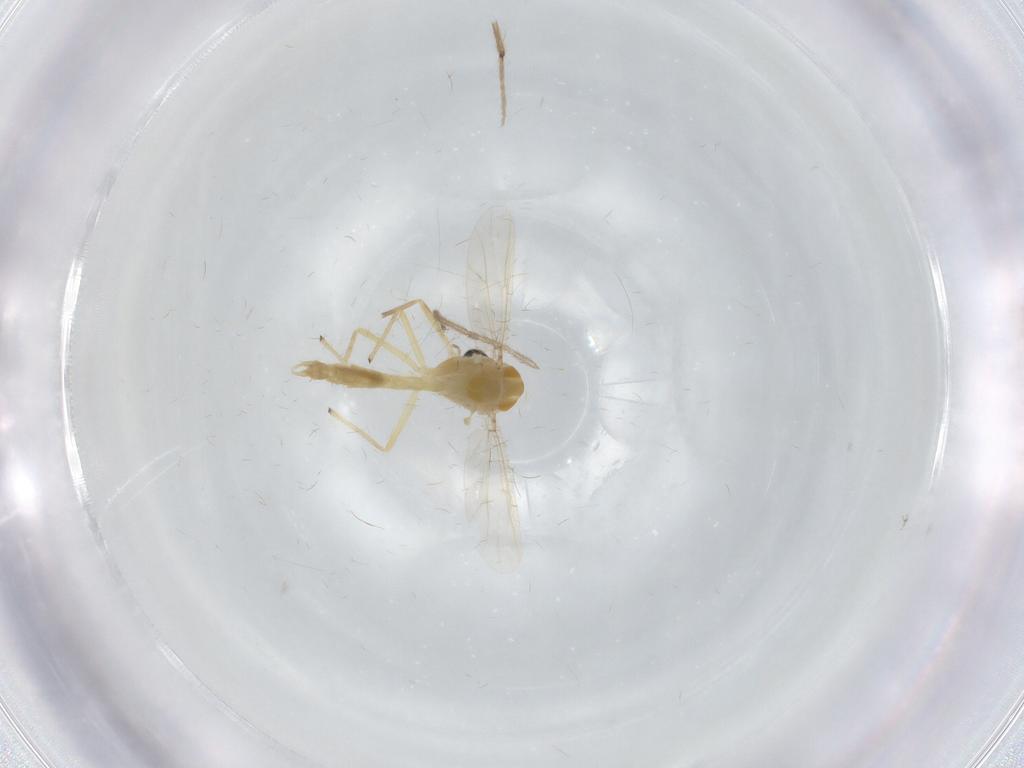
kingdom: Animalia
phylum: Arthropoda
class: Insecta
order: Diptera
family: Chironomidae
